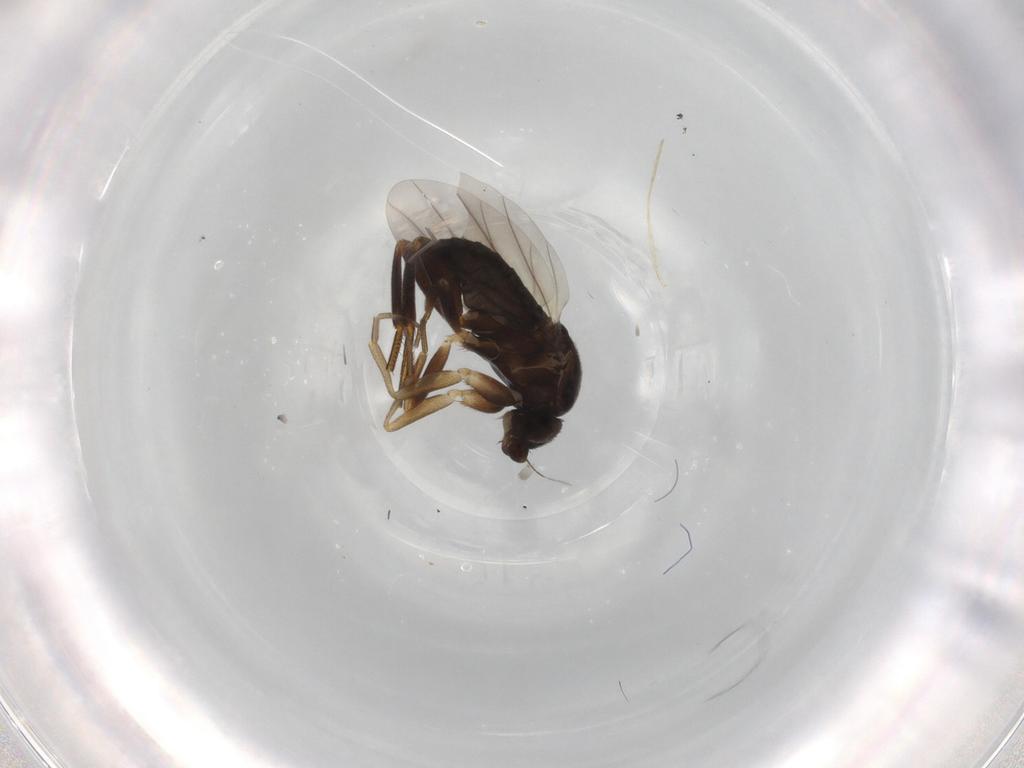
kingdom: Animalia
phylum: Arthropoda
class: Insecta
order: Diptera
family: Phoridae
